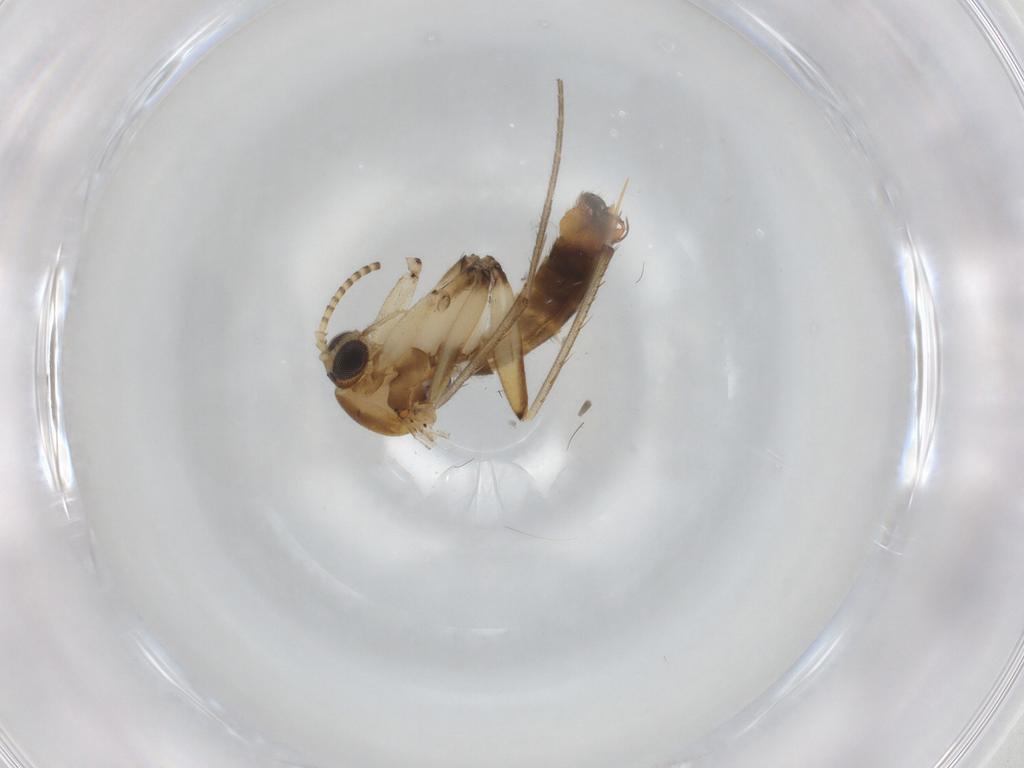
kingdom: Animalia
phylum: Arthropoda
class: Insecta
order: Diptera
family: Mycetophilidae
